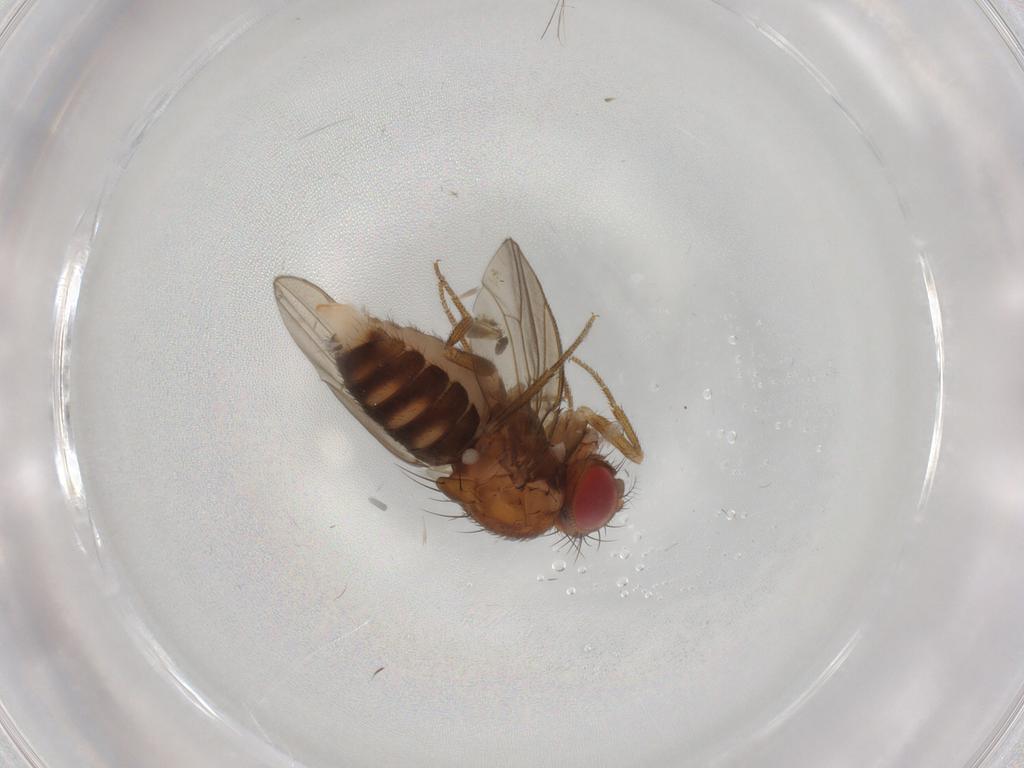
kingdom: Animalia
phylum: Arthropoda
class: Insecta
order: Diptera
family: Drosophilidae
